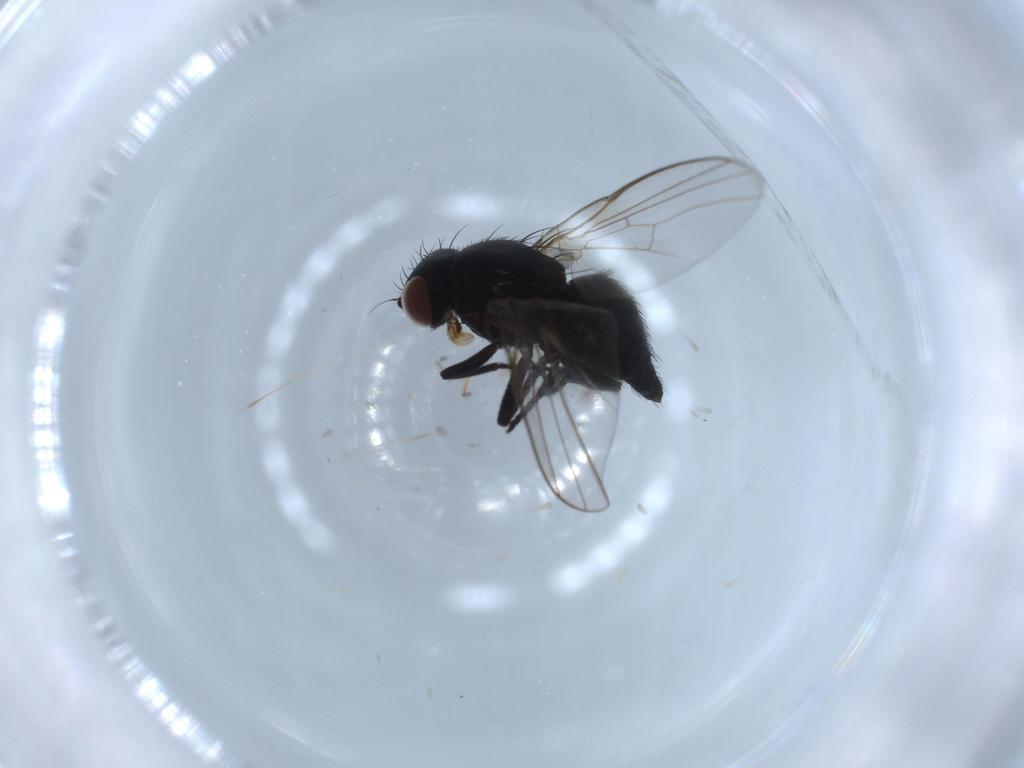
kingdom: Animalia
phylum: Arthropoda
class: Insecta
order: Diptera
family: Agromyzidae
